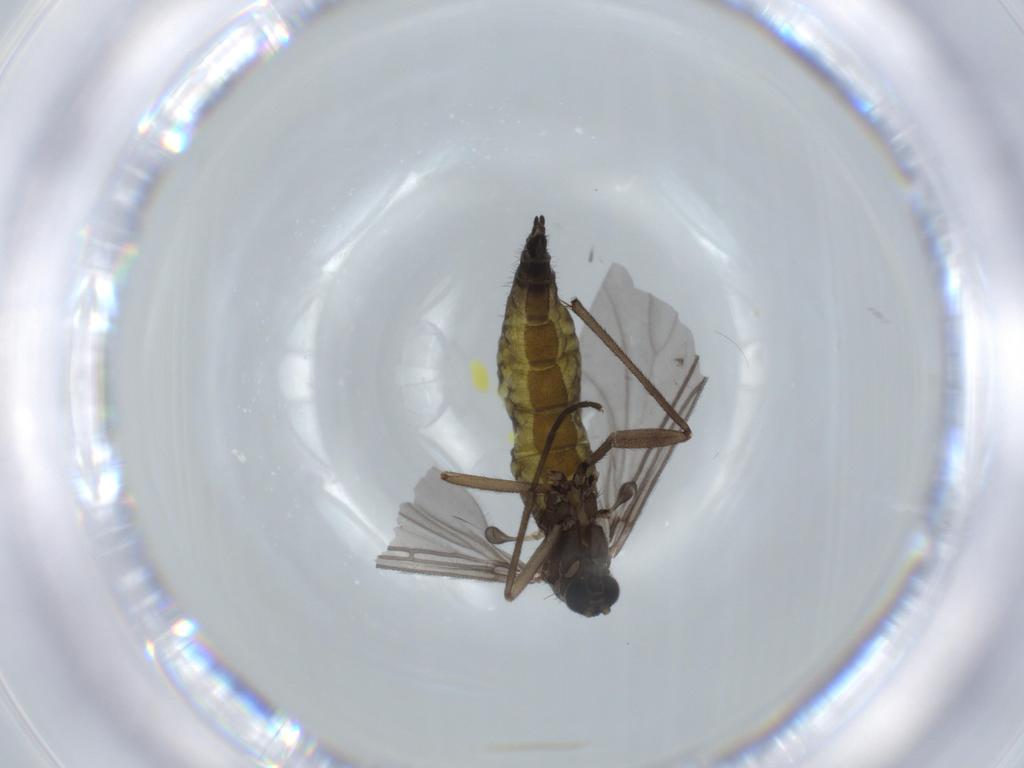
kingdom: Animalia
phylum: Arthropoda
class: Insecta
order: Diptera
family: Sciaridae
